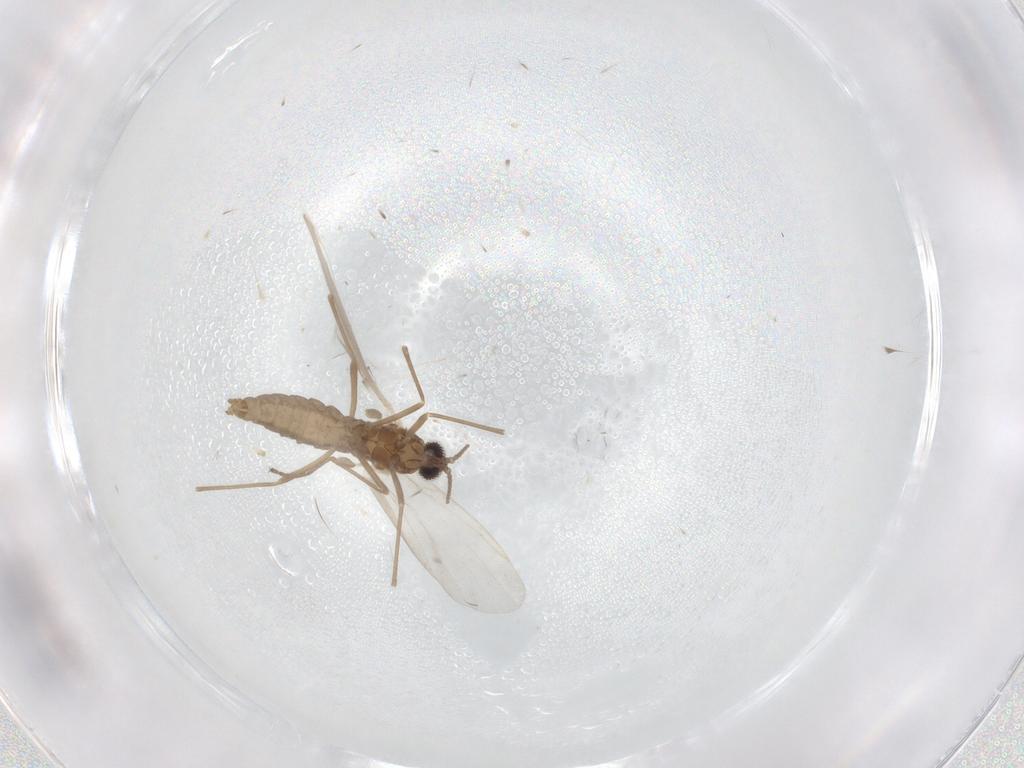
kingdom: Animalia
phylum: Arthropoda
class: Insecta
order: Diptera
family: Cecidomyiidae
